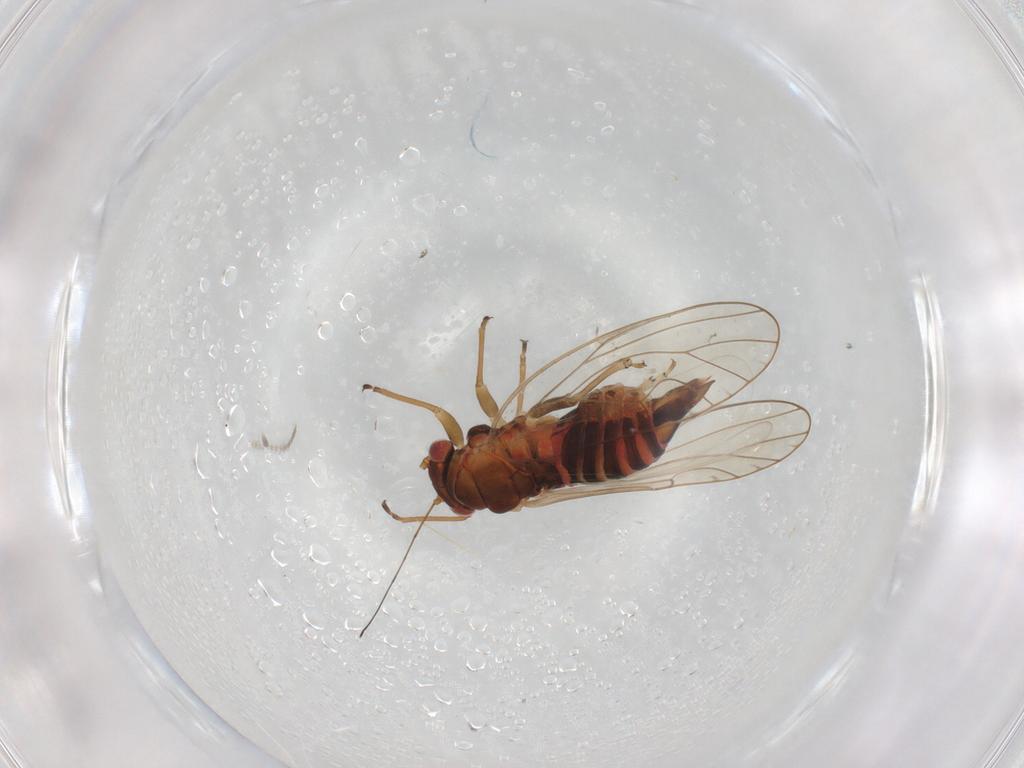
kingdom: Animalia
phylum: Arthropoda
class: Insecta
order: Hemiptera
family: Psyllidae
